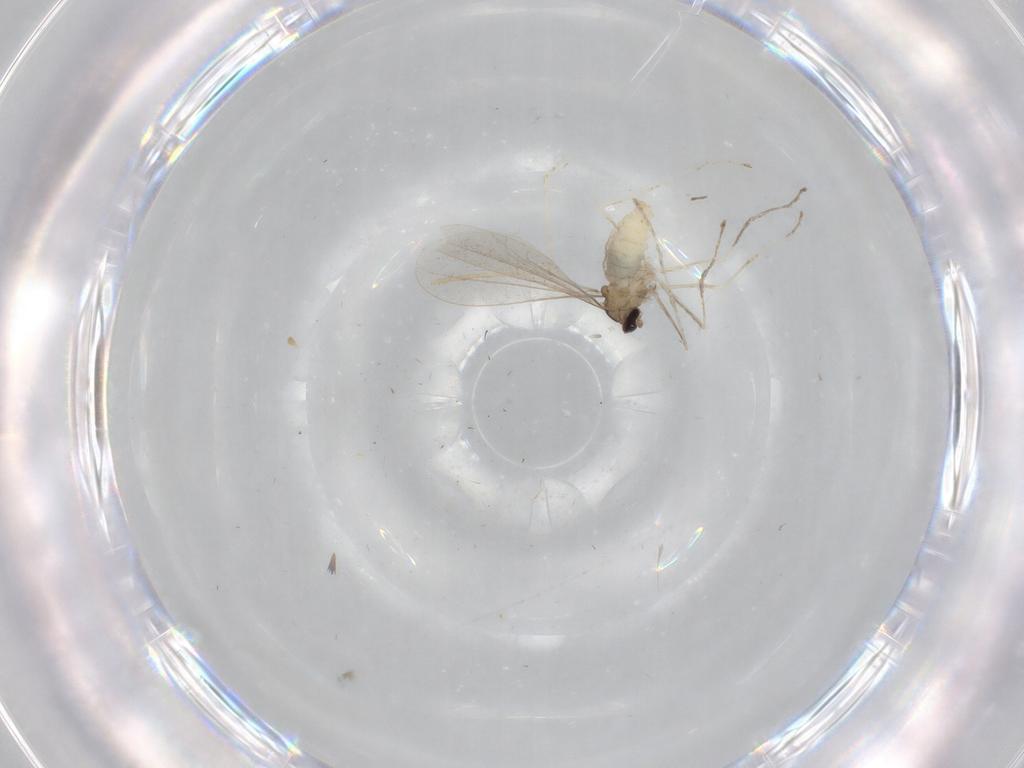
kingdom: Animalia
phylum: Arthropoda
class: Insecta
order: Diptera
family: Cecidomyiidae
